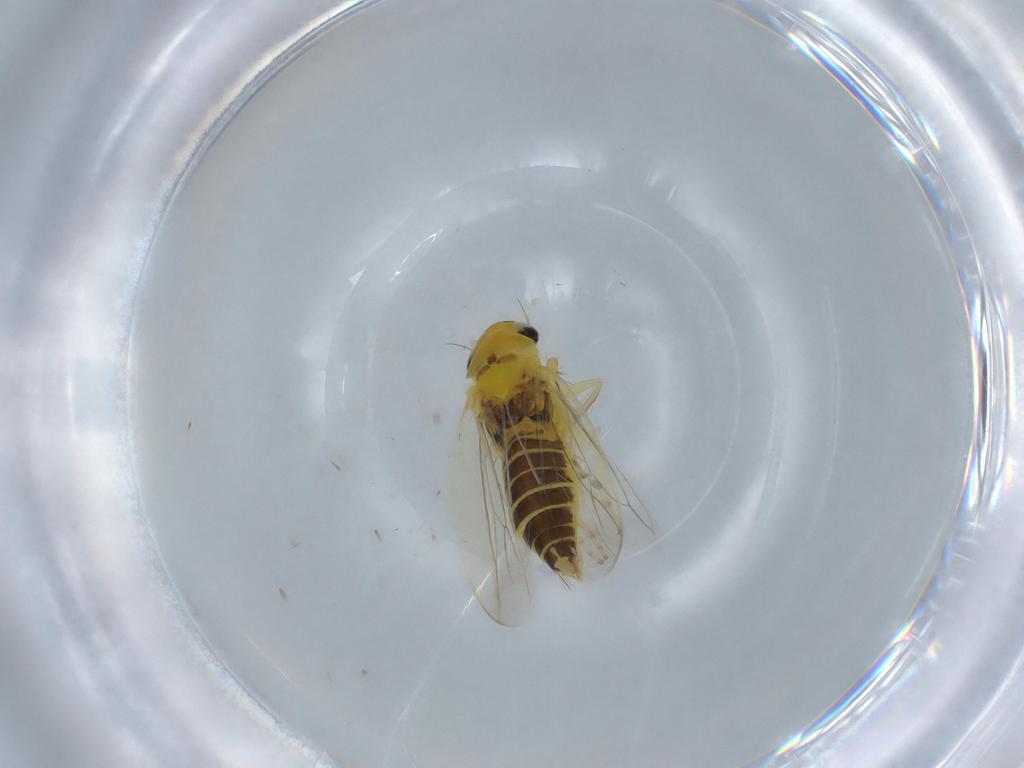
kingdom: Animalia
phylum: Arthropoda
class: Insecta
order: Hemiptera
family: Cicadellidae
